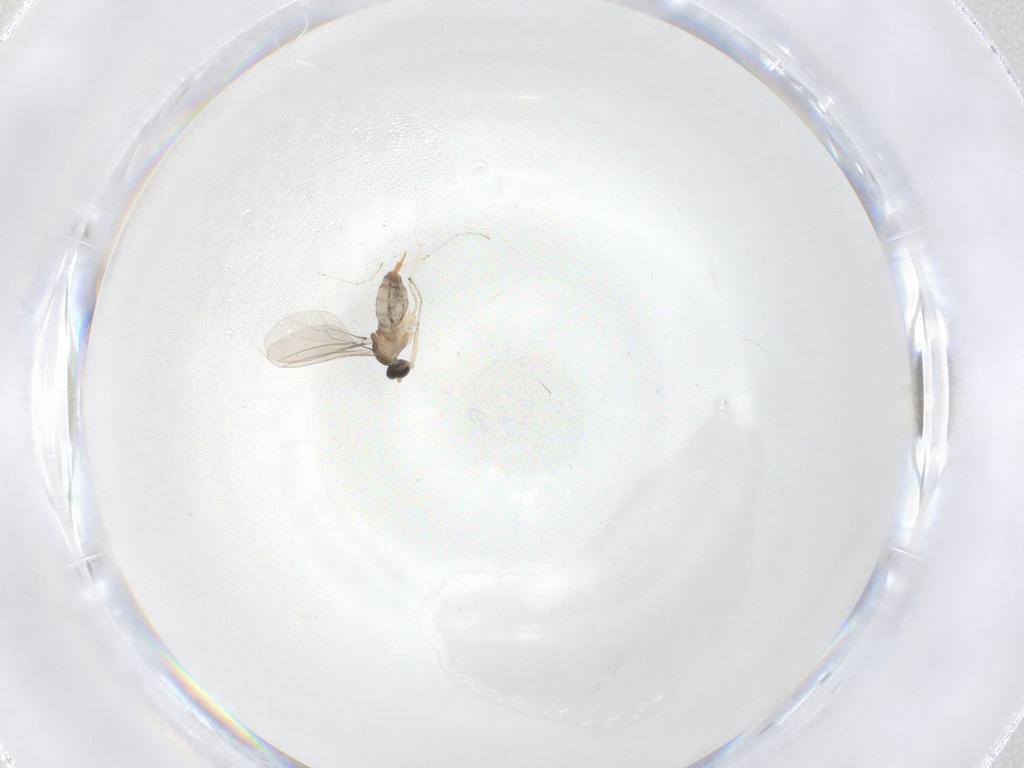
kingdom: Animalia
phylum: Arthropoda
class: Insecta
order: Diptera
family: Cecidomyiidae
